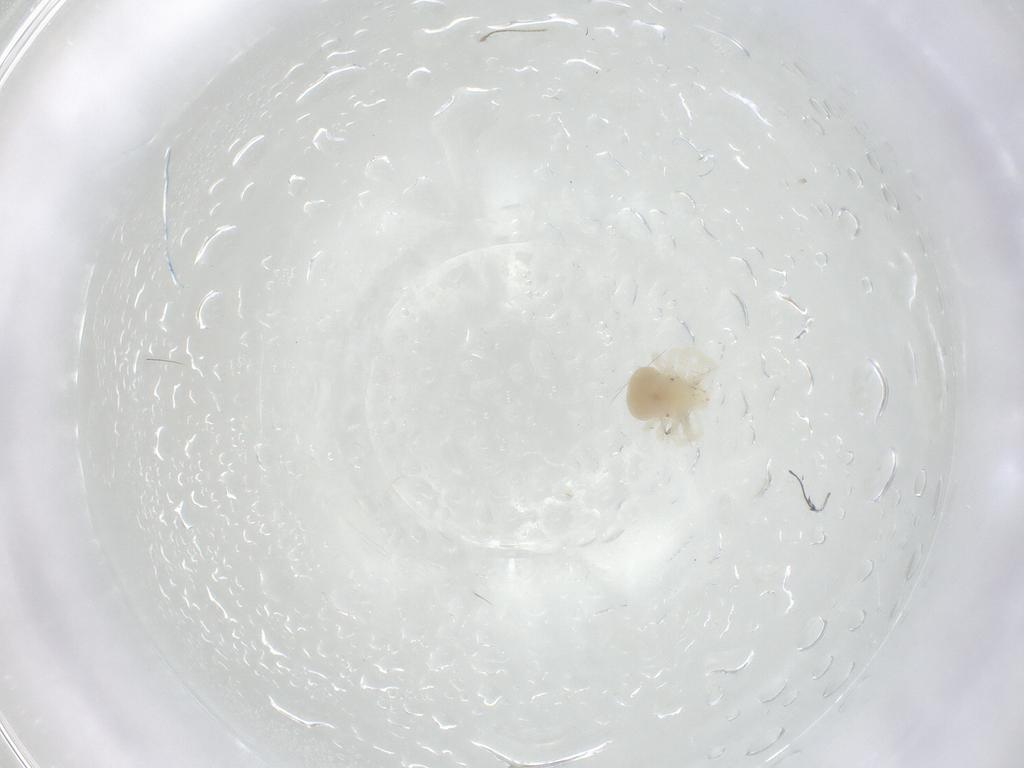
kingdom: Animalia
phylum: Arthropoda
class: Arachnida
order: Trombidiformes
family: Anystidae
